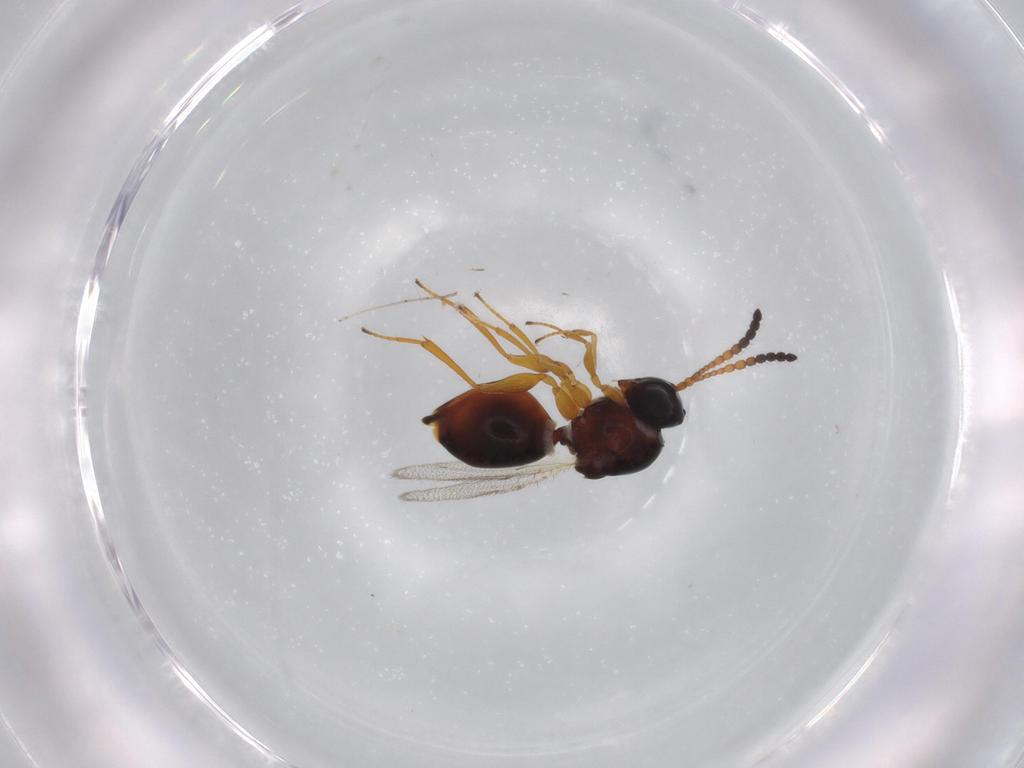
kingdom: Animalia
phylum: Arthropoda
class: Insecta
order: Hymenoptera
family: Figitidae
